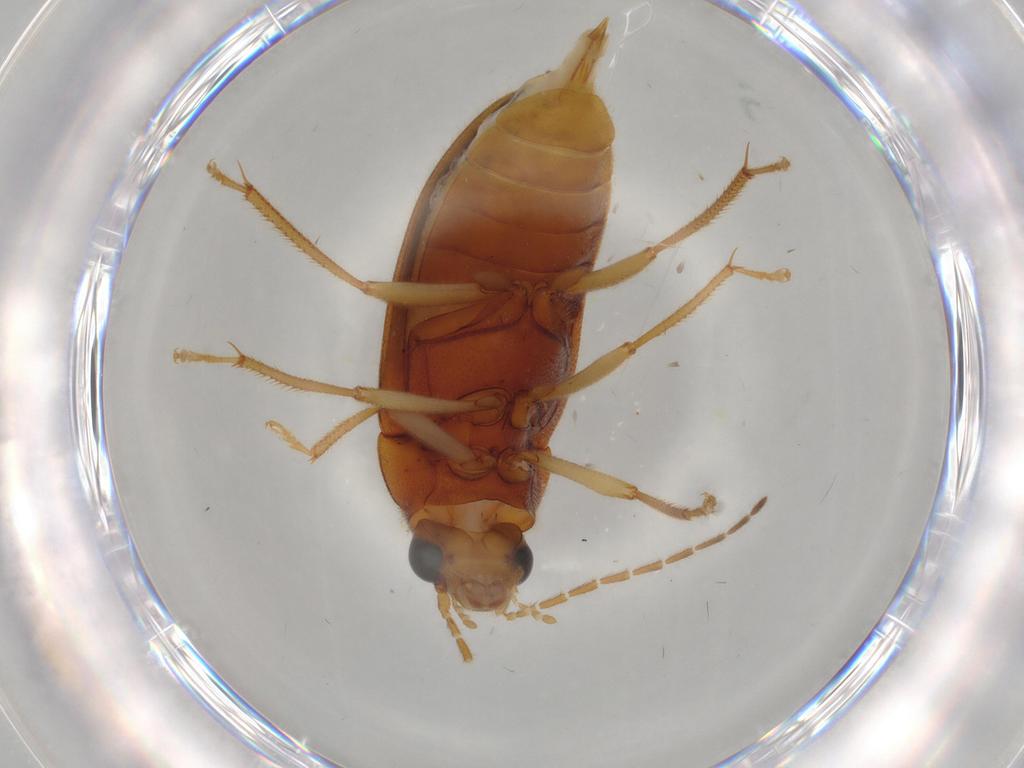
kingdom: Animalia
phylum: Arthropoda
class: Insecta
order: Coleoptera
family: Ptilodactylidae
